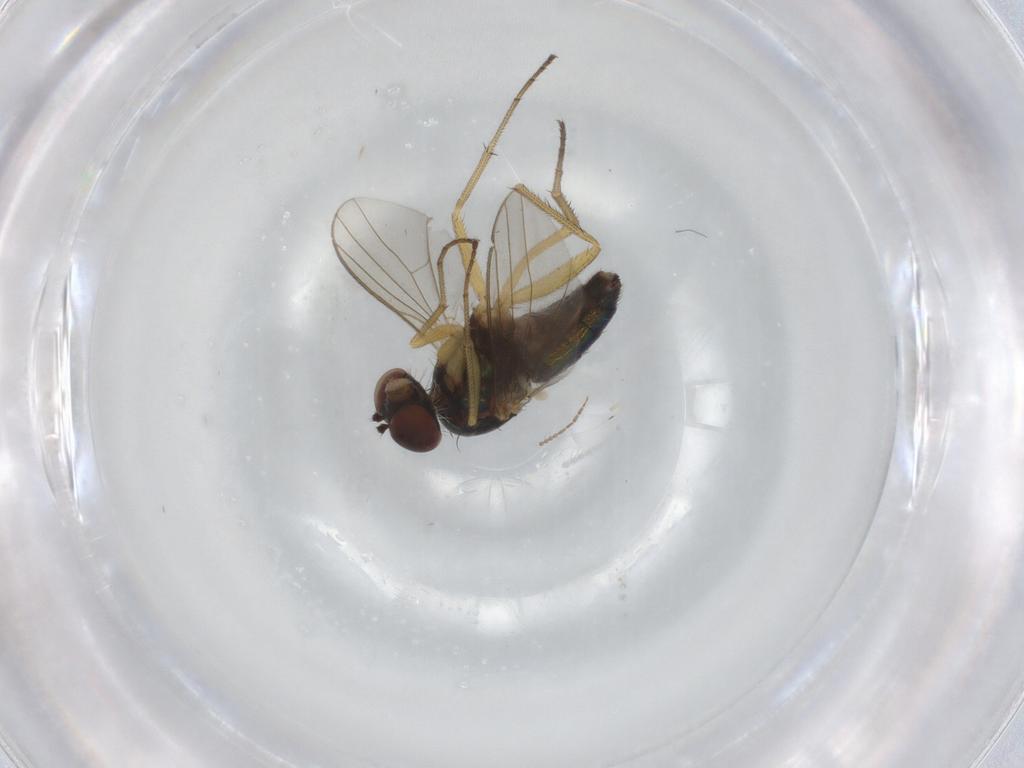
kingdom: Animalia
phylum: Arthropoda
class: Insecta
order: Diptera
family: Dolichopodidae
